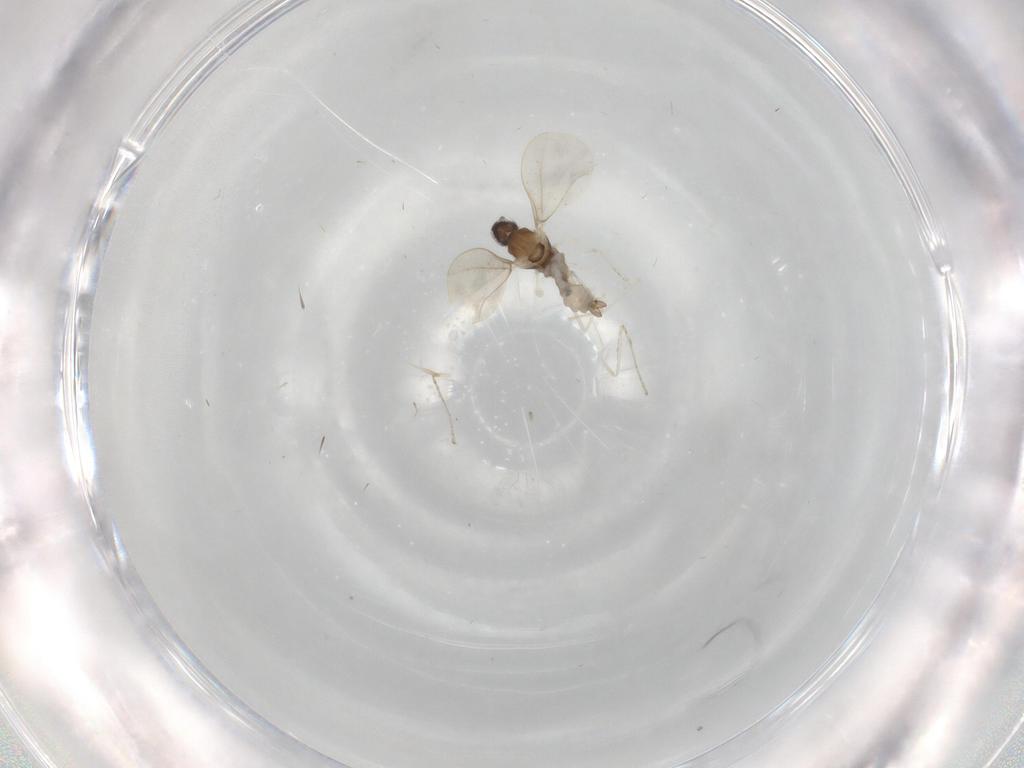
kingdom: Animalia
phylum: Arthropoda
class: Insecta
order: Diptera
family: Cecidomyiidae
